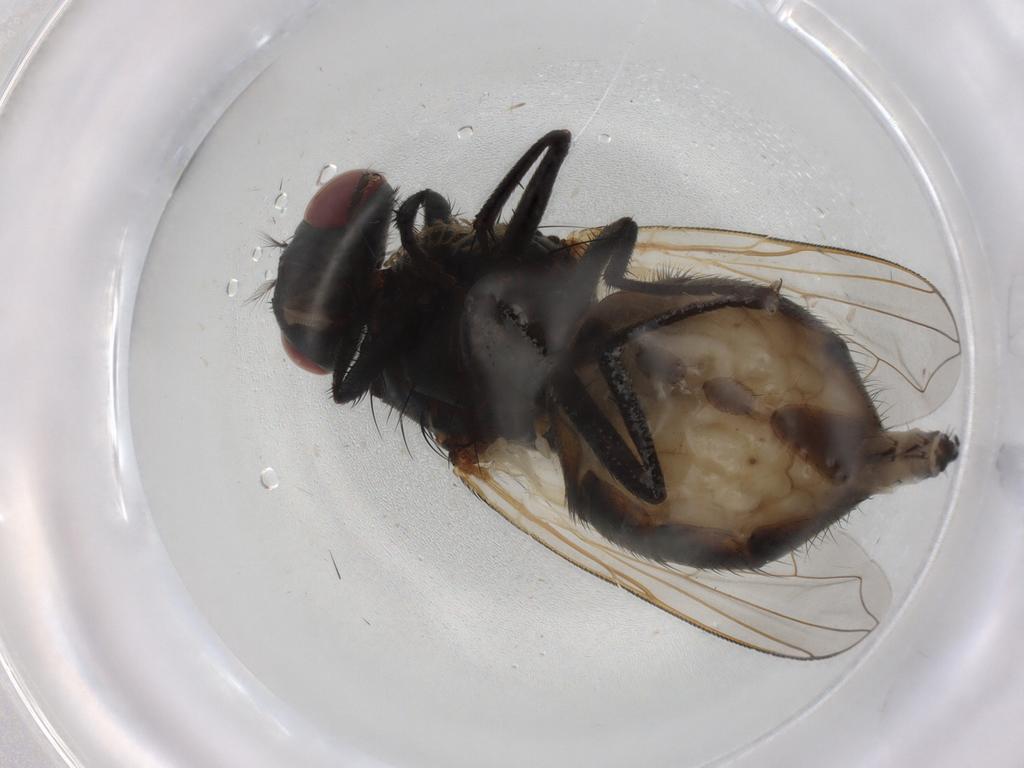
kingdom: Animalia
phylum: Arthropoda
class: Insecta
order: Diptera
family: Muscidae
